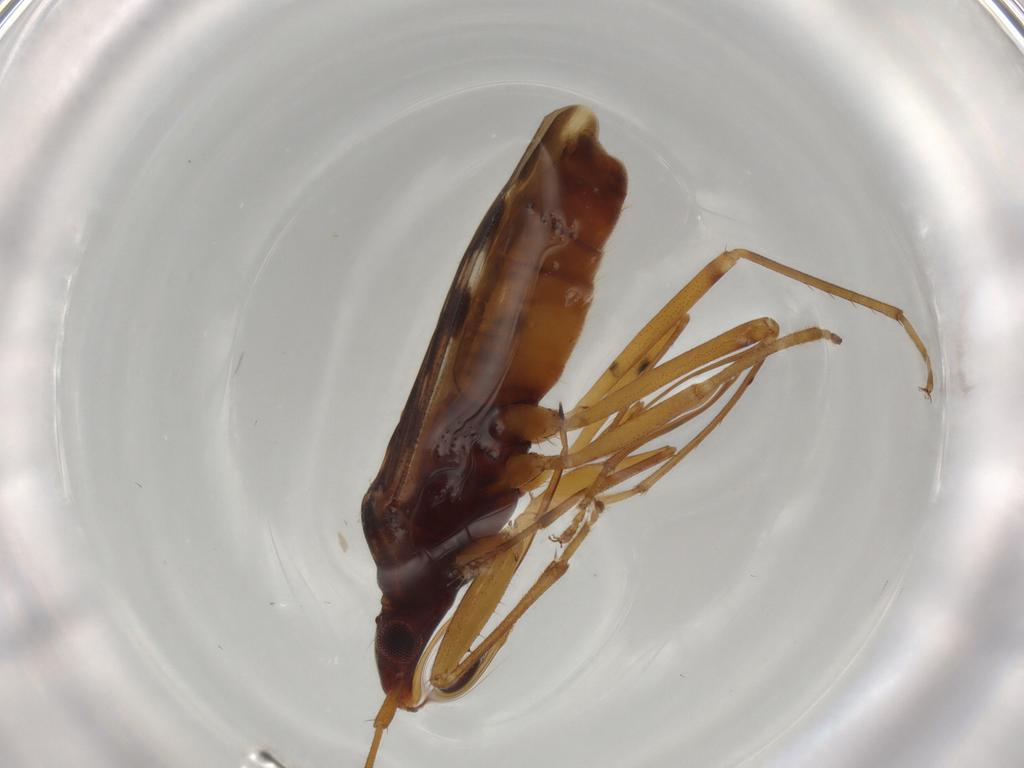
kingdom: Animalia
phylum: Arthropoda
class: Insecta
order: Hemiptera
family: Rhyparochromidae
